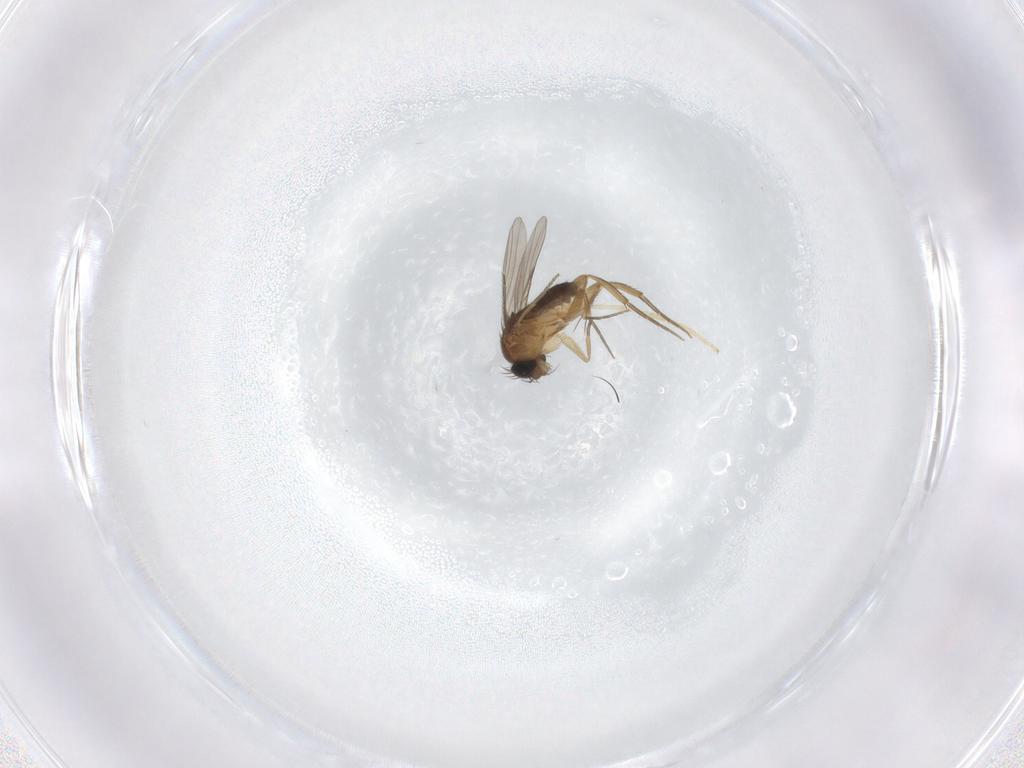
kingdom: Animalia
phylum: Arthropoda
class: Insecta
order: Diptera
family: Phoridae
